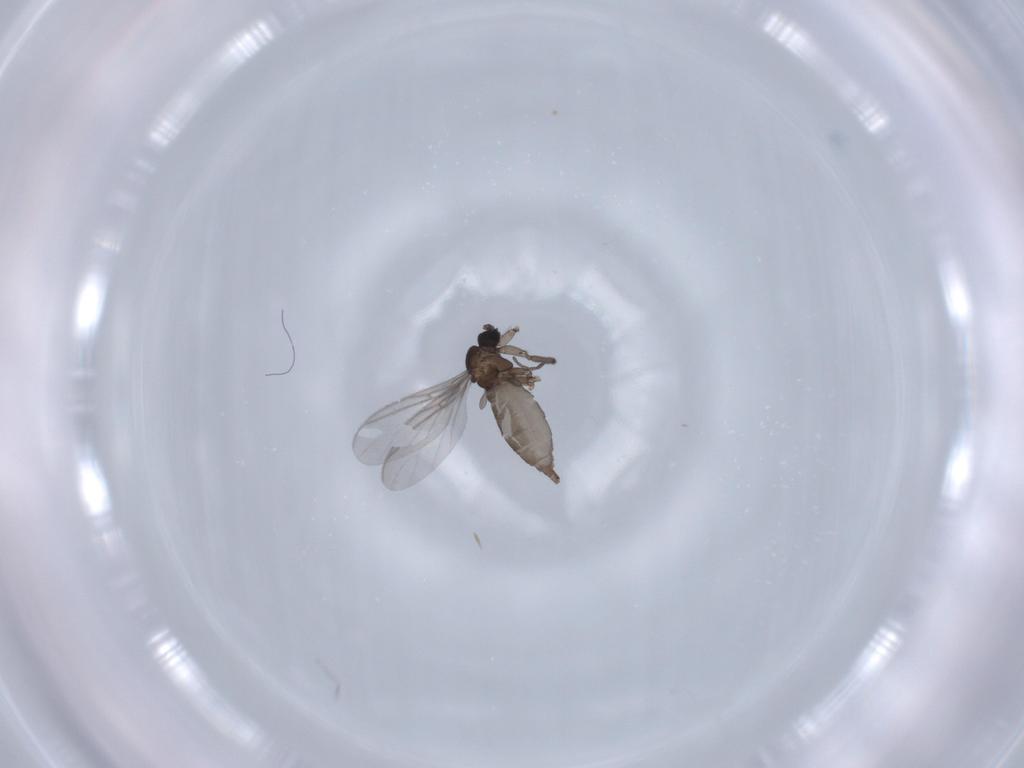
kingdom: Animalia
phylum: Arthropoda
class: Insecta
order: Diptera
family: Sciaridae
